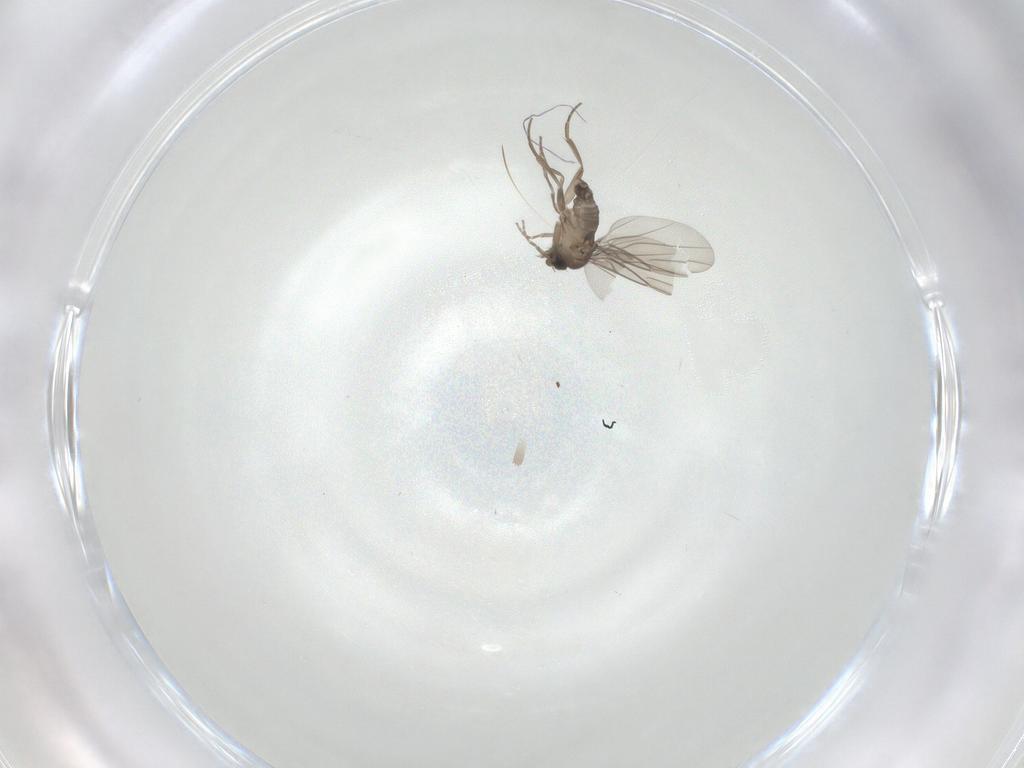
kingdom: Animalia
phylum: Arthropoda
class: Insecta
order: Diptera
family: Phoridae
